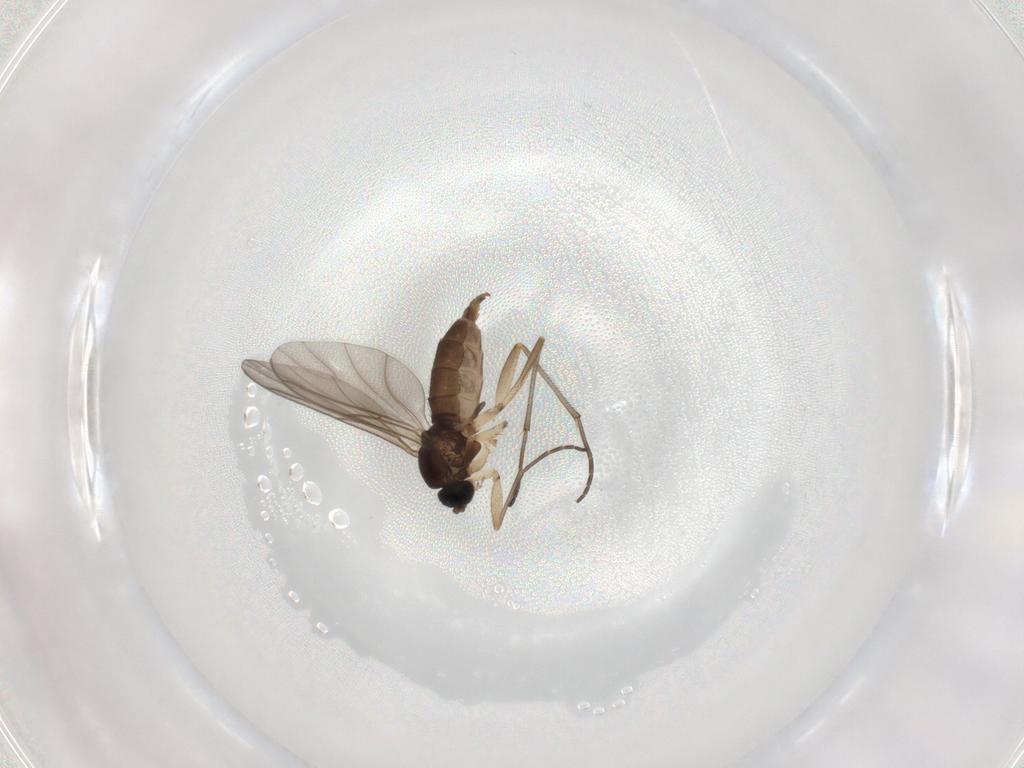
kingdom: Animalia
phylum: Arthropoda
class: Insecta
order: Diptera
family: Sciaridae
